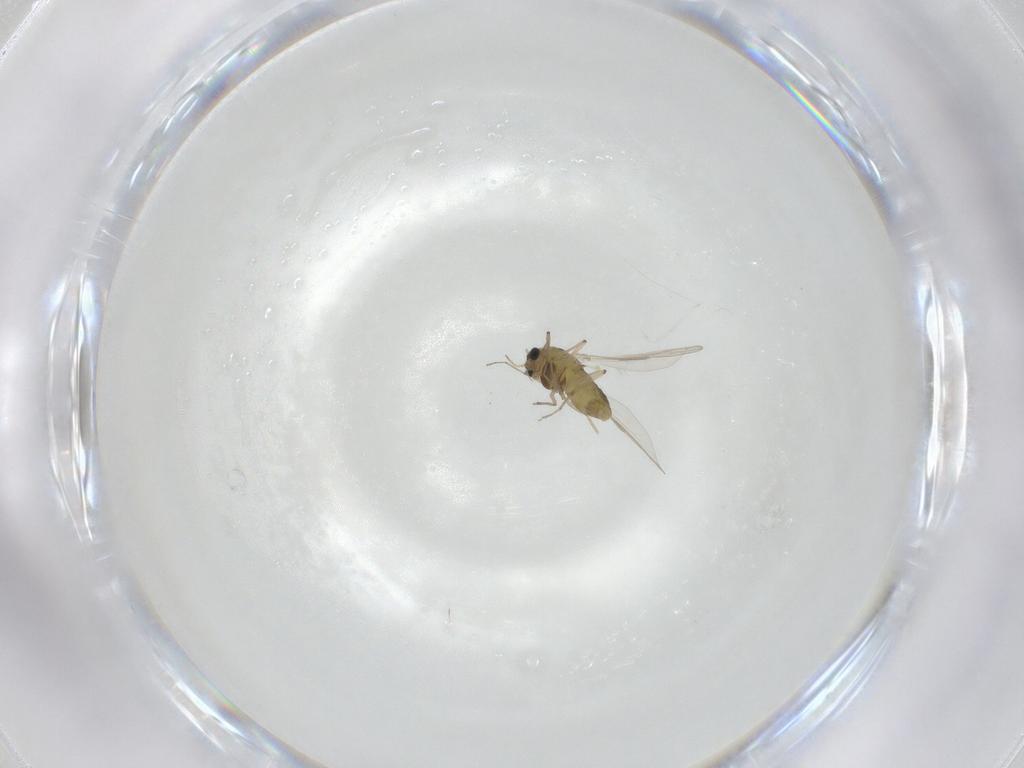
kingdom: Animalia
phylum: Arthropoda
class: Insecta
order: Diptera
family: Chironomidae
